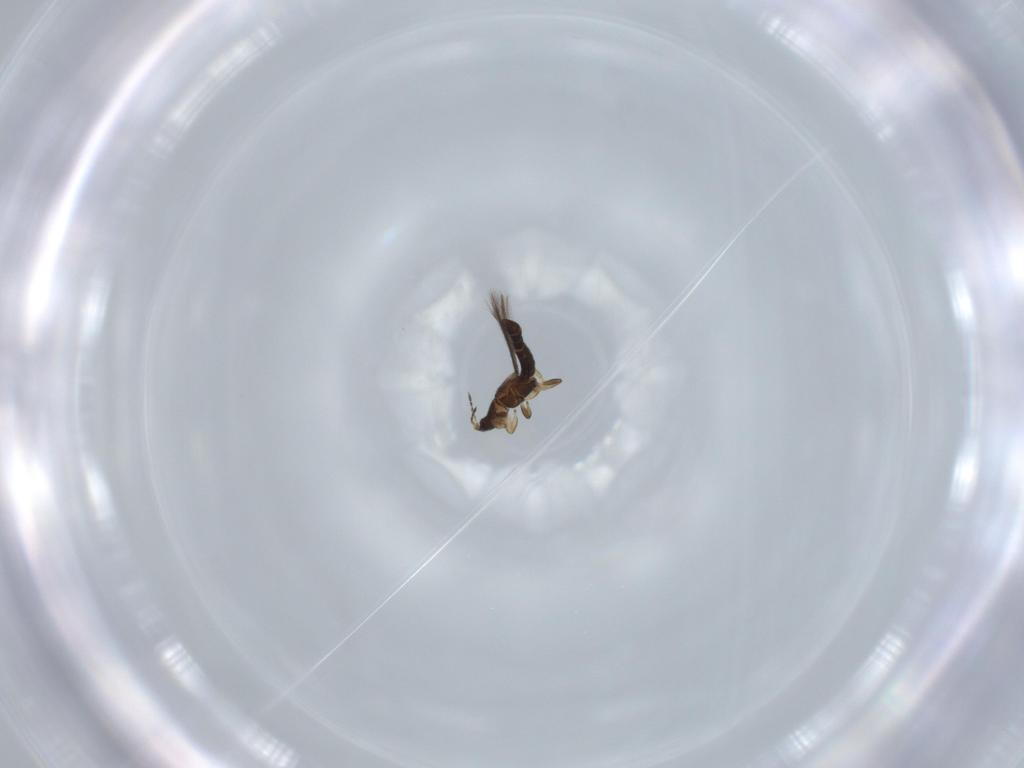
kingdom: Animalia
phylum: Arthropoda
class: Insecta
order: Thysanoptera
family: Thripidae
